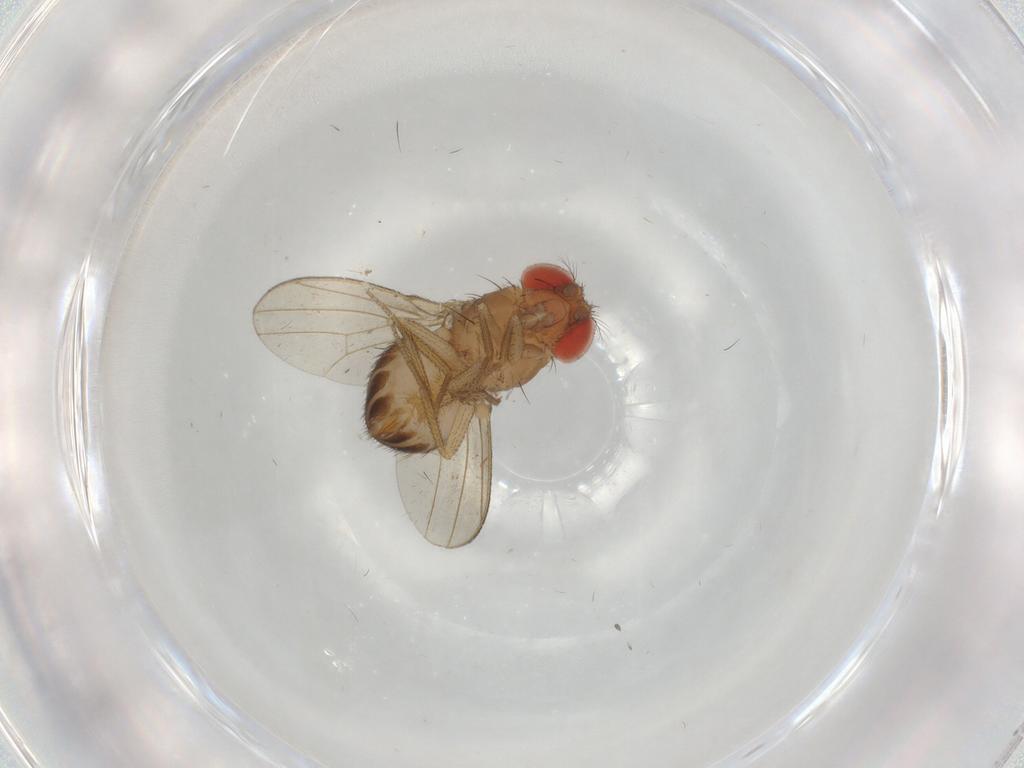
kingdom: Animalia
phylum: Arthropoda
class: Insecta
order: Diptera
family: Drosophilidae
